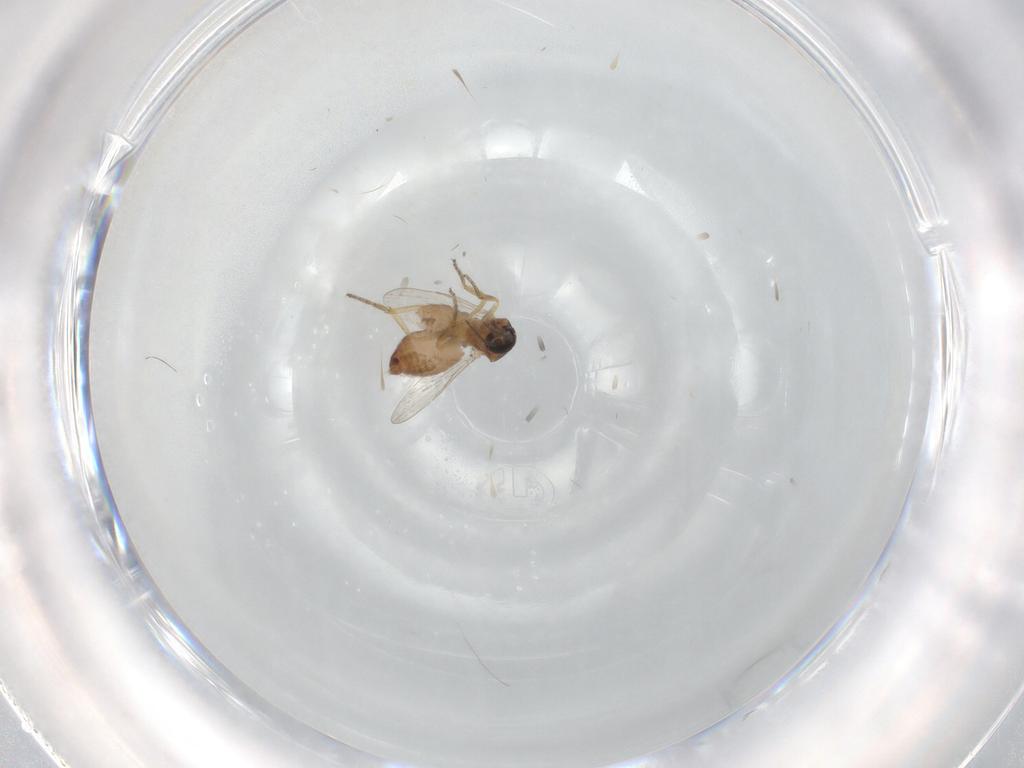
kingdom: Animalia
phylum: Arthropoda
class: Insecta
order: Diptera
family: Ceratopogonidae
